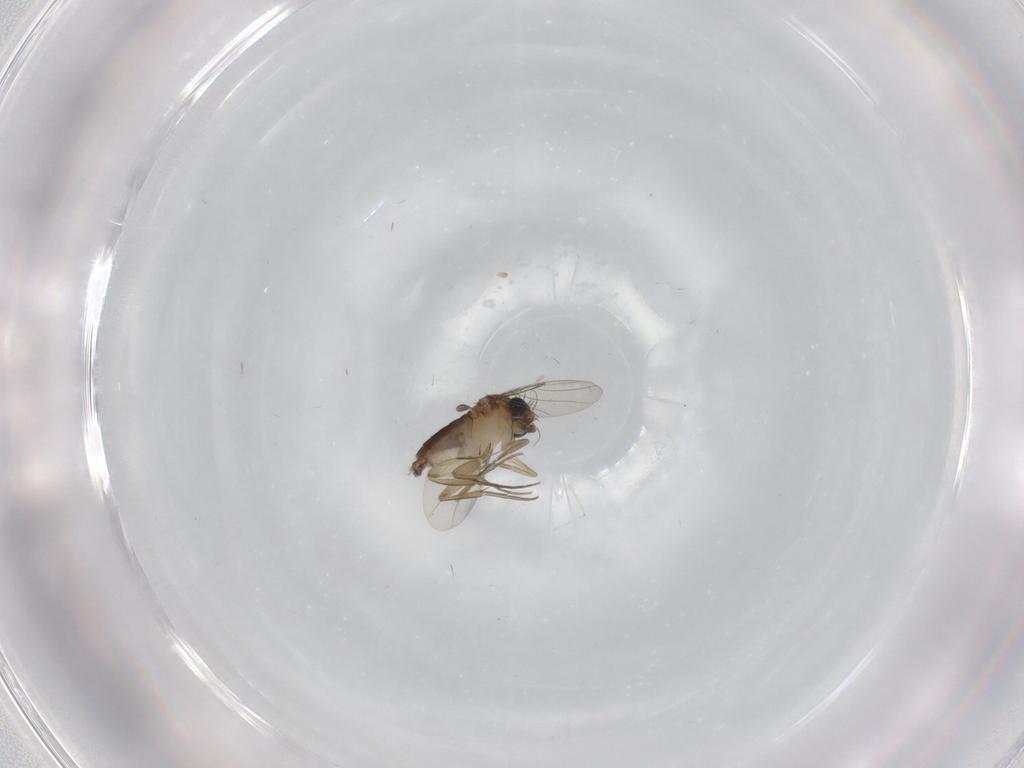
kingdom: Animalia
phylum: Arthropoda
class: Insecta
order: Diptera
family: Phoridae
